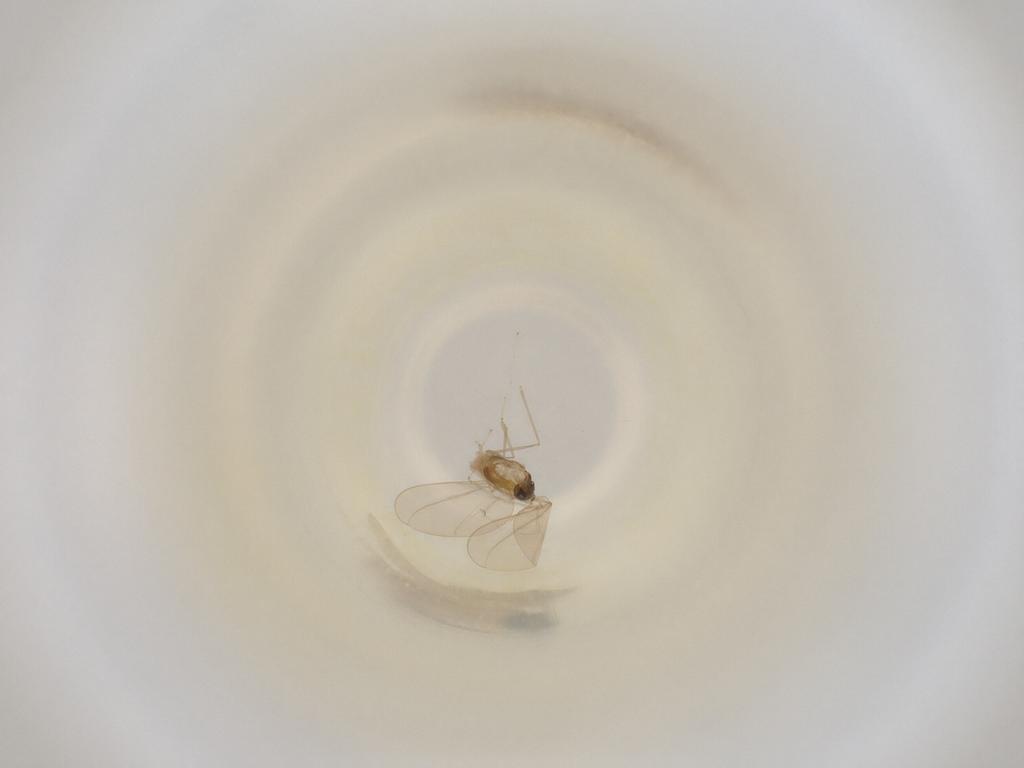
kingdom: Animalia
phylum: Arthropoda
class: Insecta
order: Diptera
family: Cecidomyiidae
